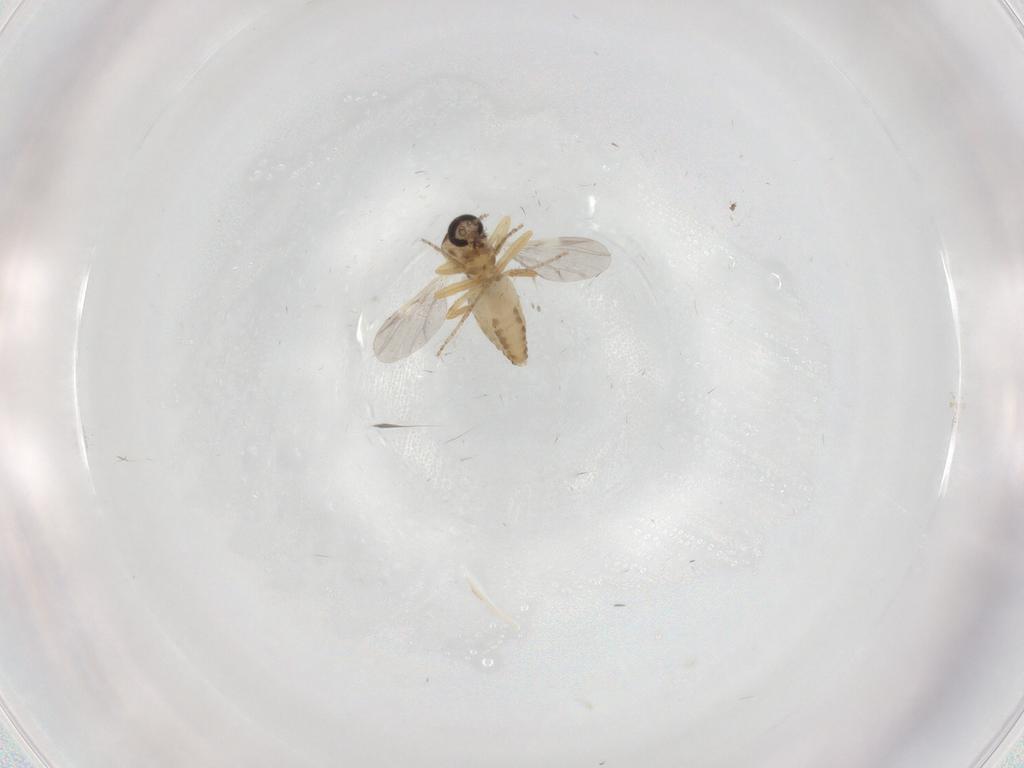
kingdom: Animalia
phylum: Arthropoda
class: Insecta
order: Diptera
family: Ceratopogonidae
